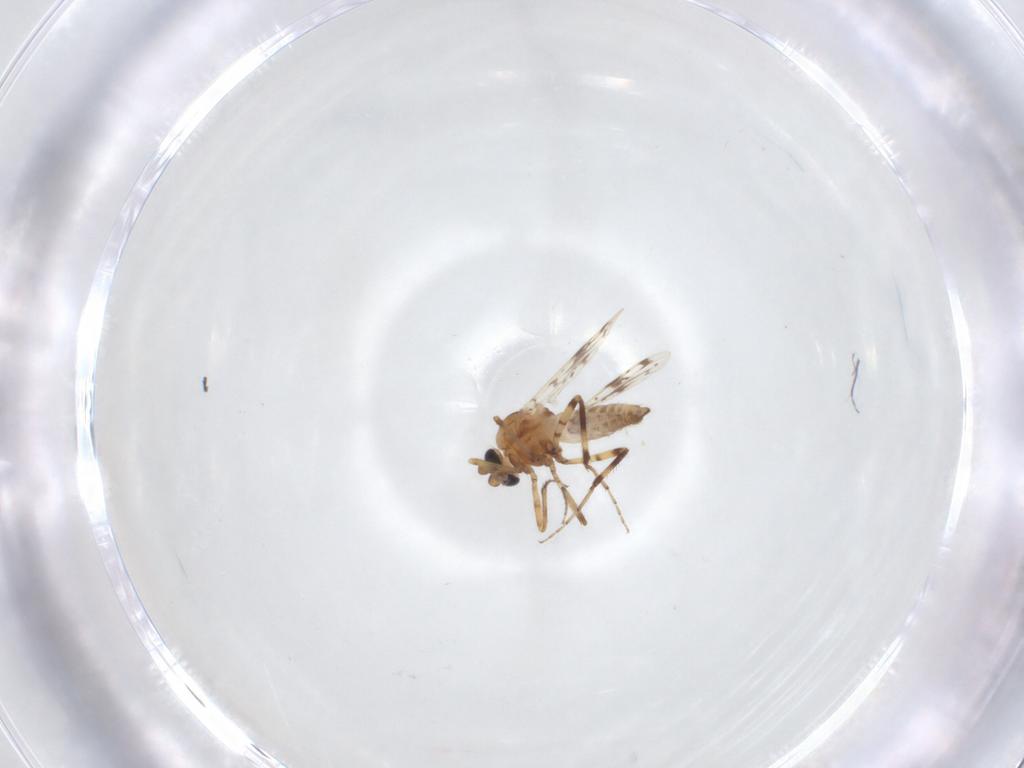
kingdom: Animalia
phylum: Arthropoda
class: Insecta
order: Diptera
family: Ceratopogonidae
